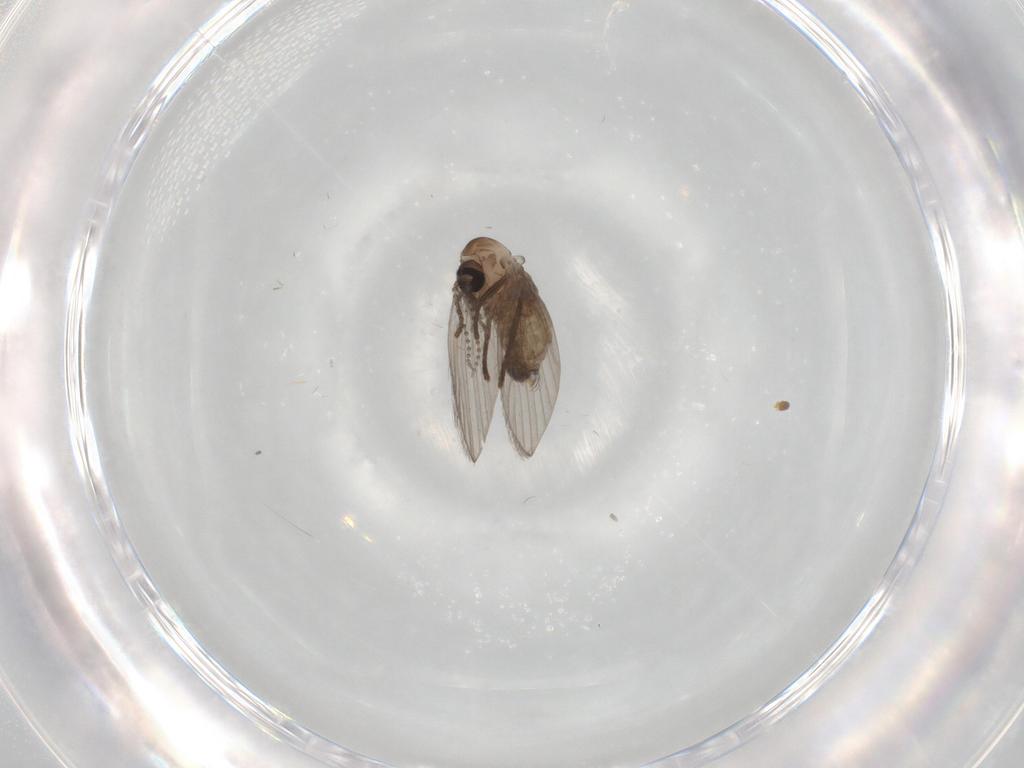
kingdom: Animalia
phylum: Arthropoda
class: Insecta
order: Diptera
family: Psychodidae
